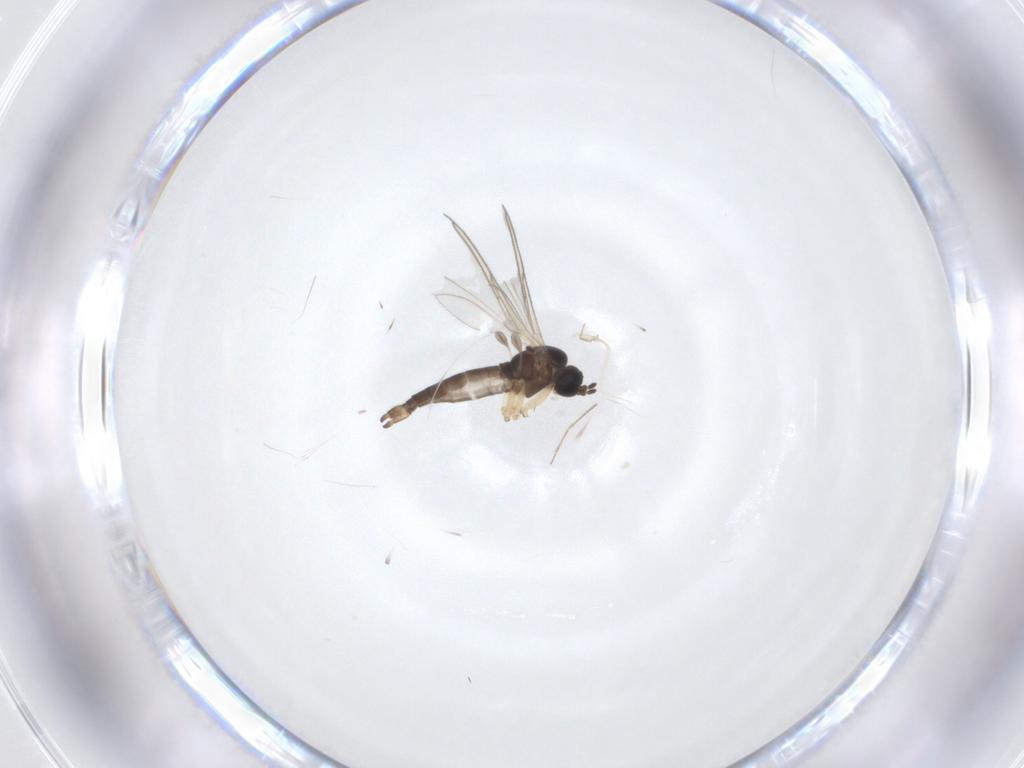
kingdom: Animalia
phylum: Arthropoda
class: Insecta
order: Diptera
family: Sciaridae
